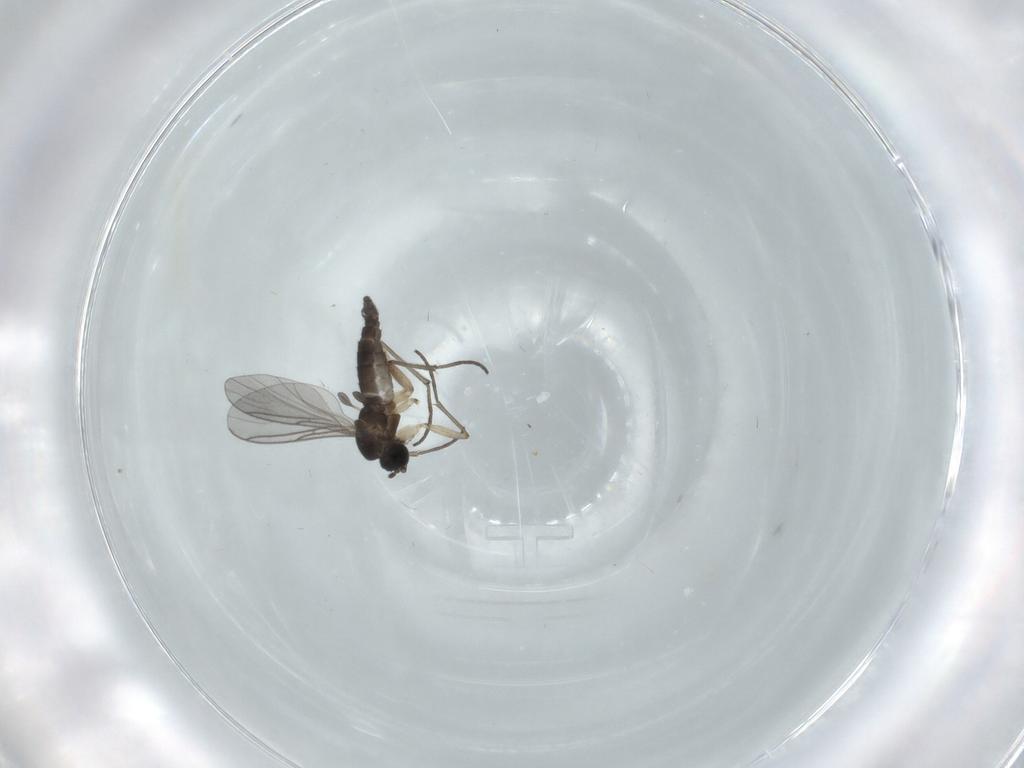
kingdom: Animalia
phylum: Arthropoda
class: Insecta
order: Diptera
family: Sciaridae
